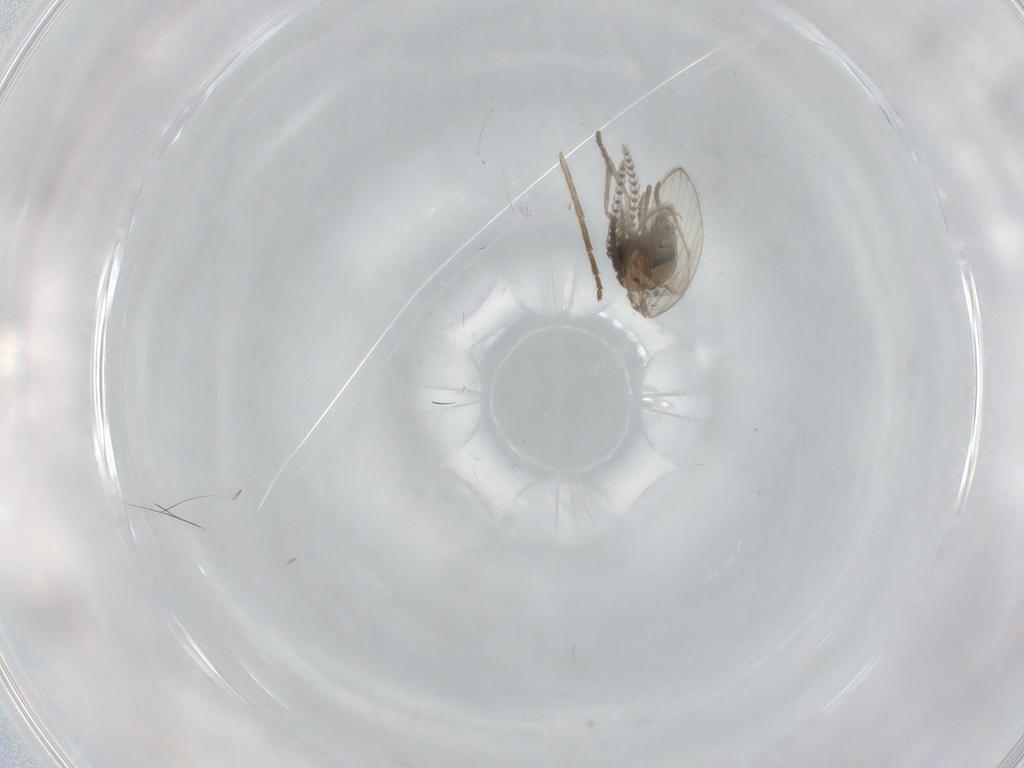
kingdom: Animalia
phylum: Arthropoda
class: Insecta
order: Diptera
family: Psychodidae
